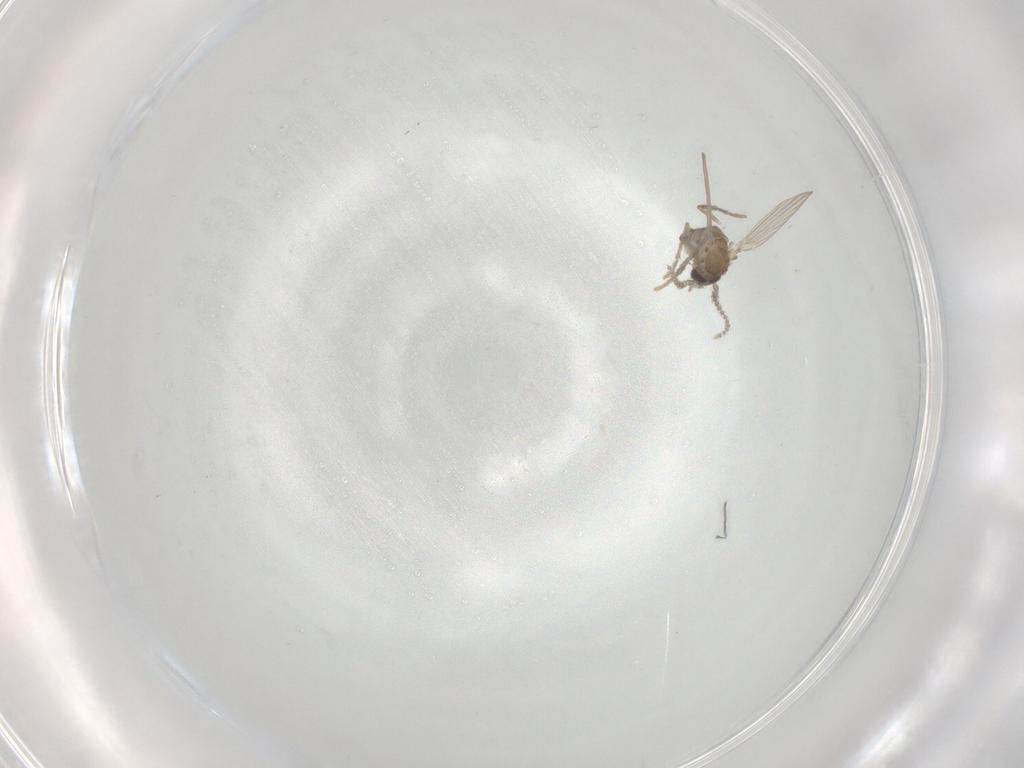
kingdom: Animalia
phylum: Arthropoda
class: Insecta
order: Diptera
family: Psychodidae
